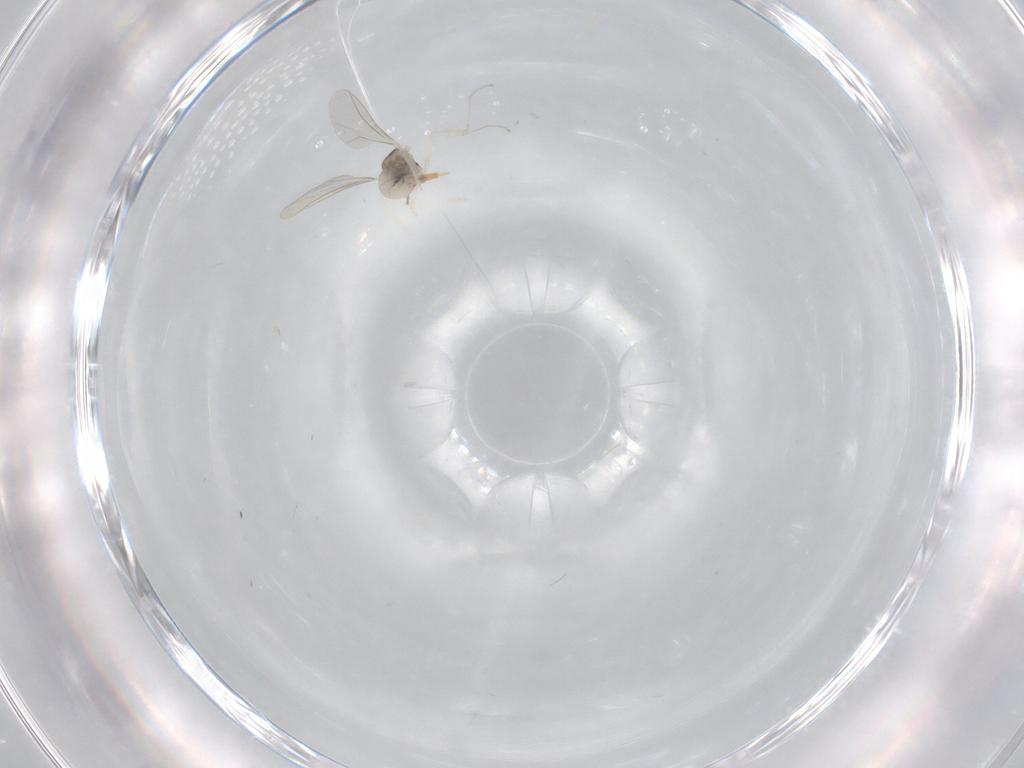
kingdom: Animalia
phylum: Arthropoda
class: Insecta
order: Diptera
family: Cecidomyiidae
